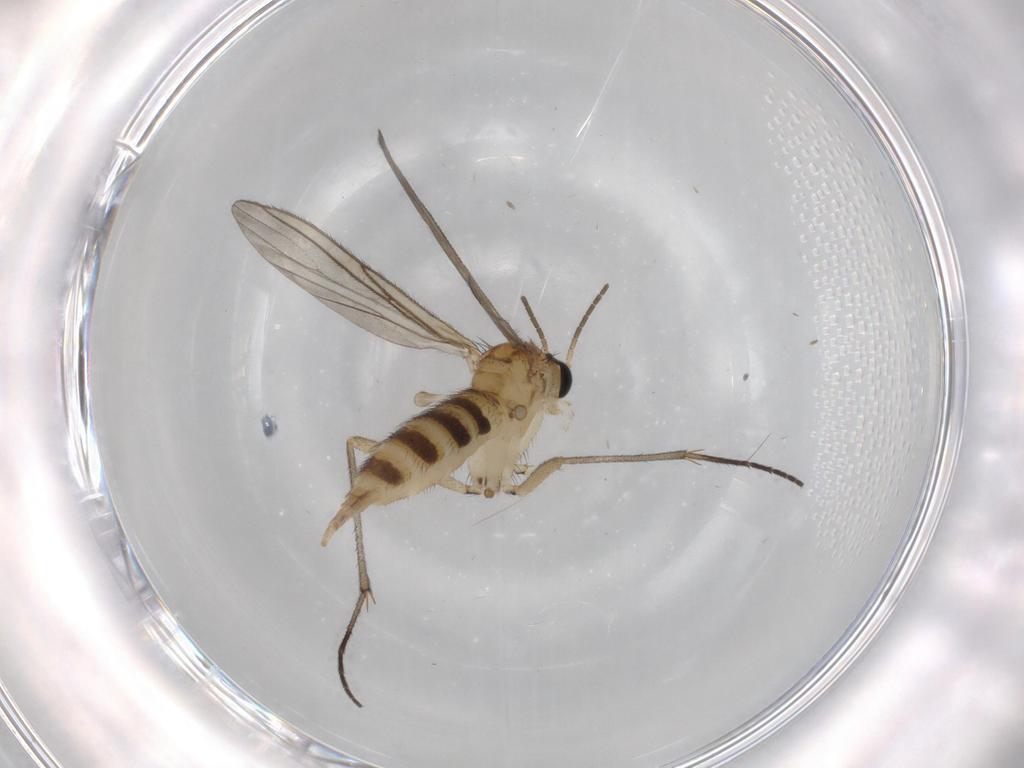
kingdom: Animalia
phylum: Arthropoda
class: Insecta
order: Diptera
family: Sciaridae
